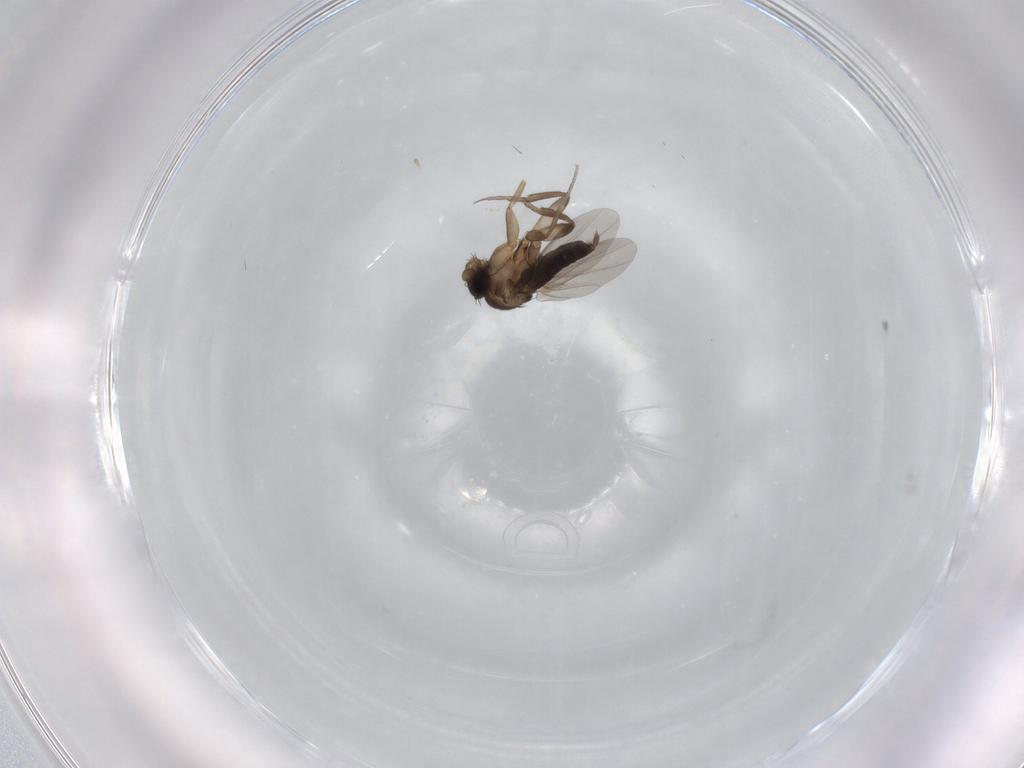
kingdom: Animalia
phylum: Arthropoda
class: Insecta
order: Diptera
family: Phoridae
